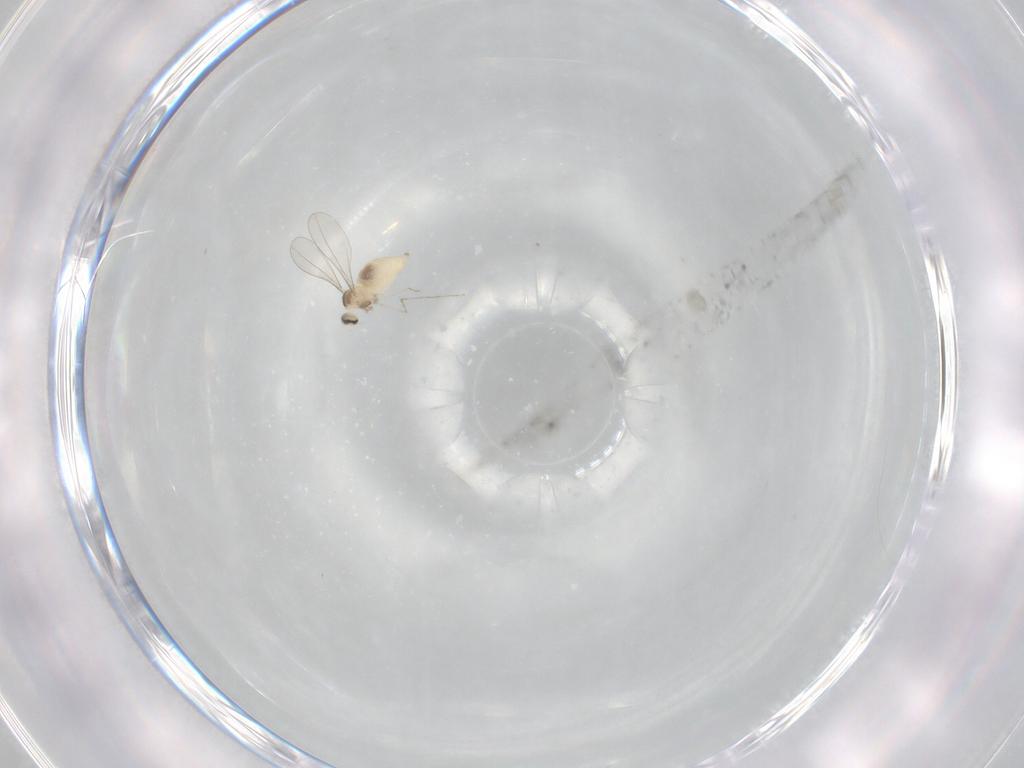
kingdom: Animalia
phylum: Arthropoda
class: Insecta
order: Diptera
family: Cecidomyiidae
